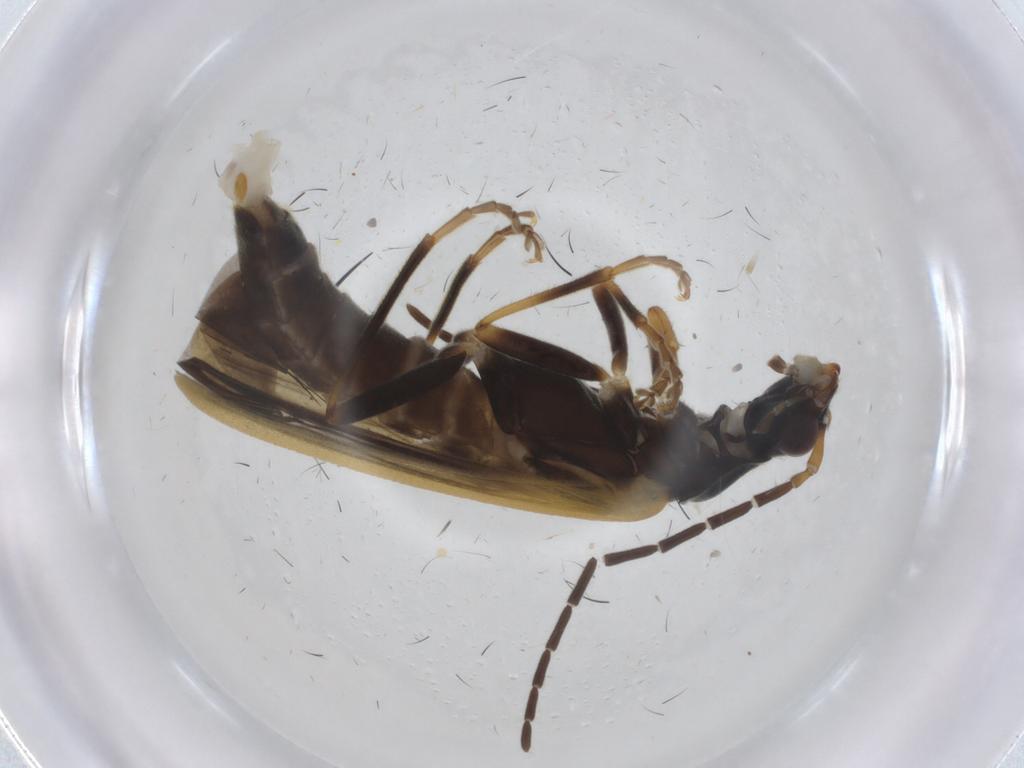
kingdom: Animalia
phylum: Arthropoda
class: Insecta
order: Coleoptera
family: Cantharidae
